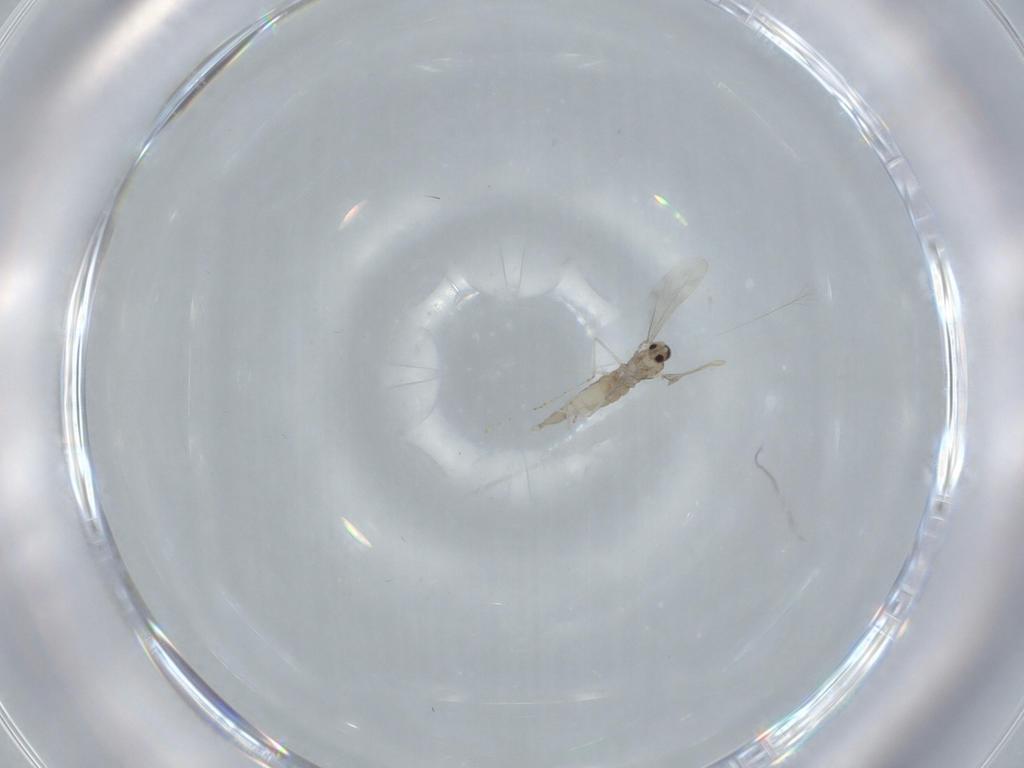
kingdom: Animalia
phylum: Arthropoda
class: Insecta
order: Diptera
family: Cecidomyiidae
